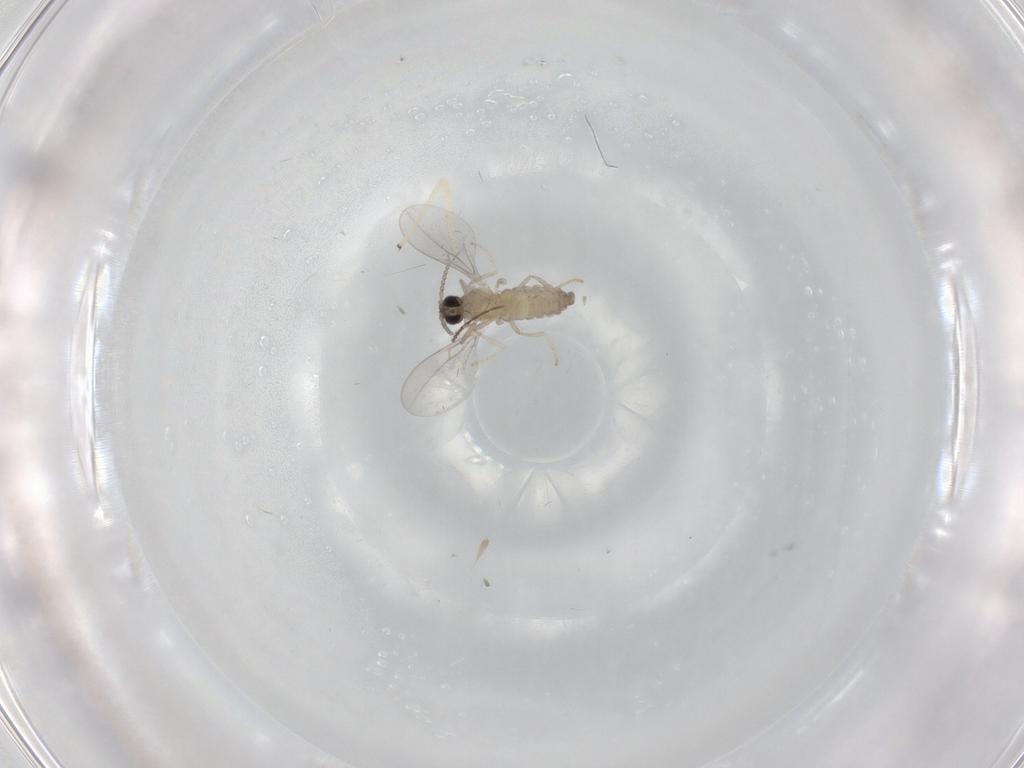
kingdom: Animalia
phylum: Arthropoda
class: Insecta
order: Diptera
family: Cecidomyiidae
